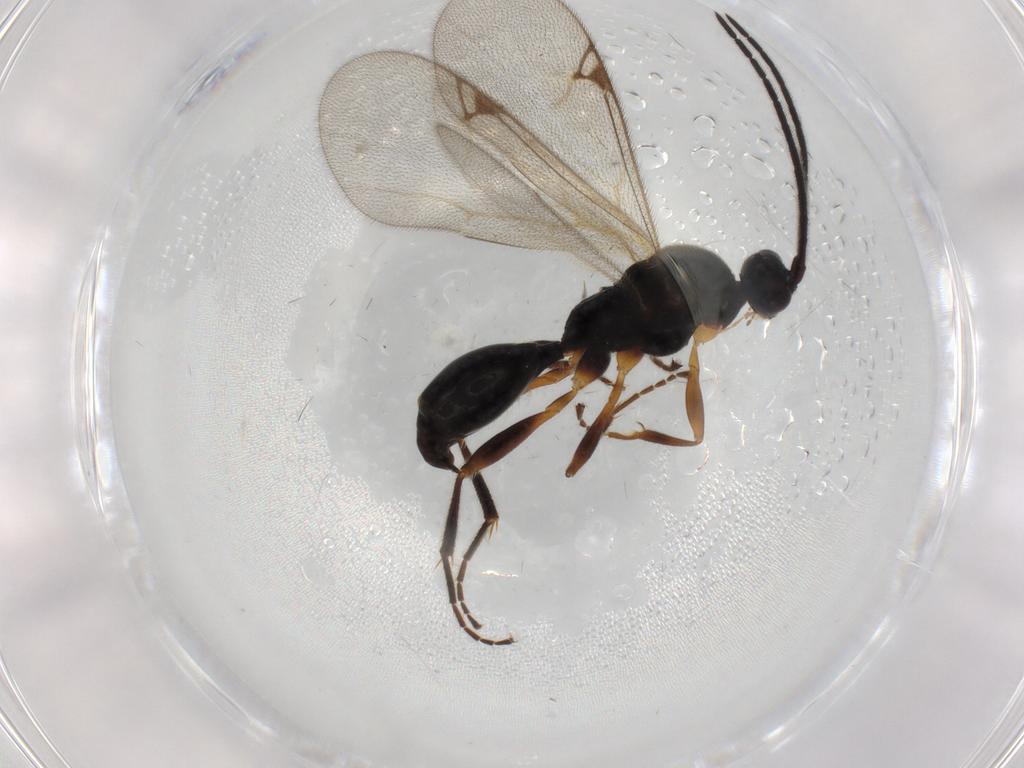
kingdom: Animalia
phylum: Arthropoda
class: Insecta
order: Hymenoptera
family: Proctotrupidae
